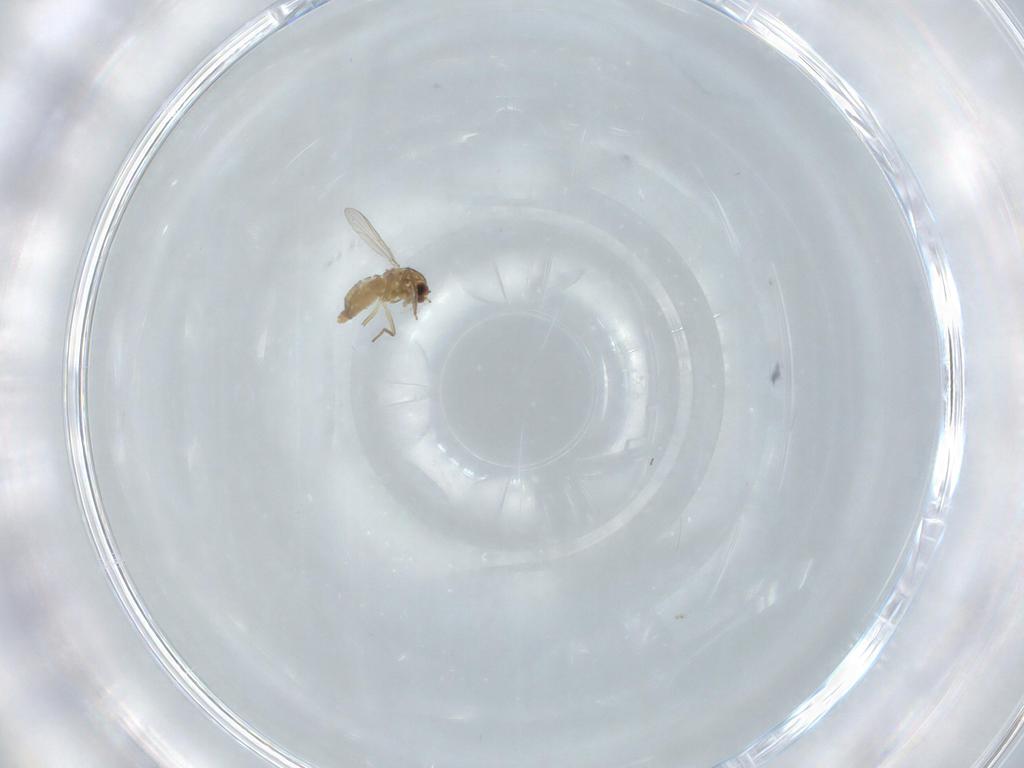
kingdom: Animalia
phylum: Arthropoda
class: Insecta
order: Diptera
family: Chironomidae
